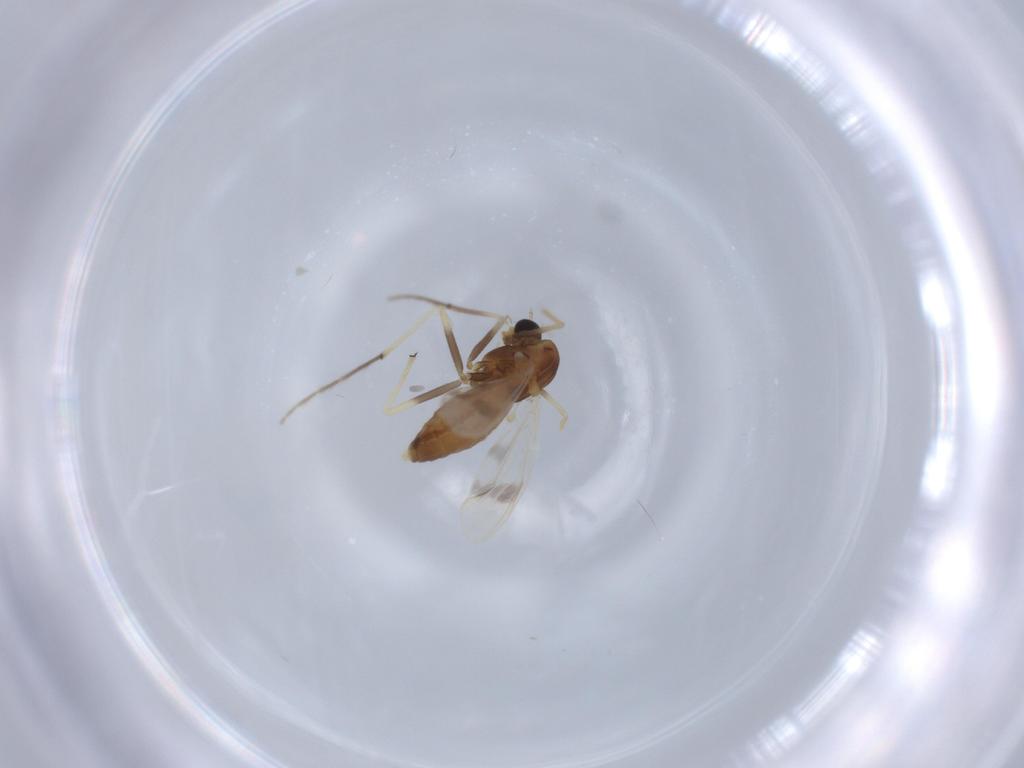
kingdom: Animalia
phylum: Arthropoda
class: Insecta
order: Diptera
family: Chironomidae
